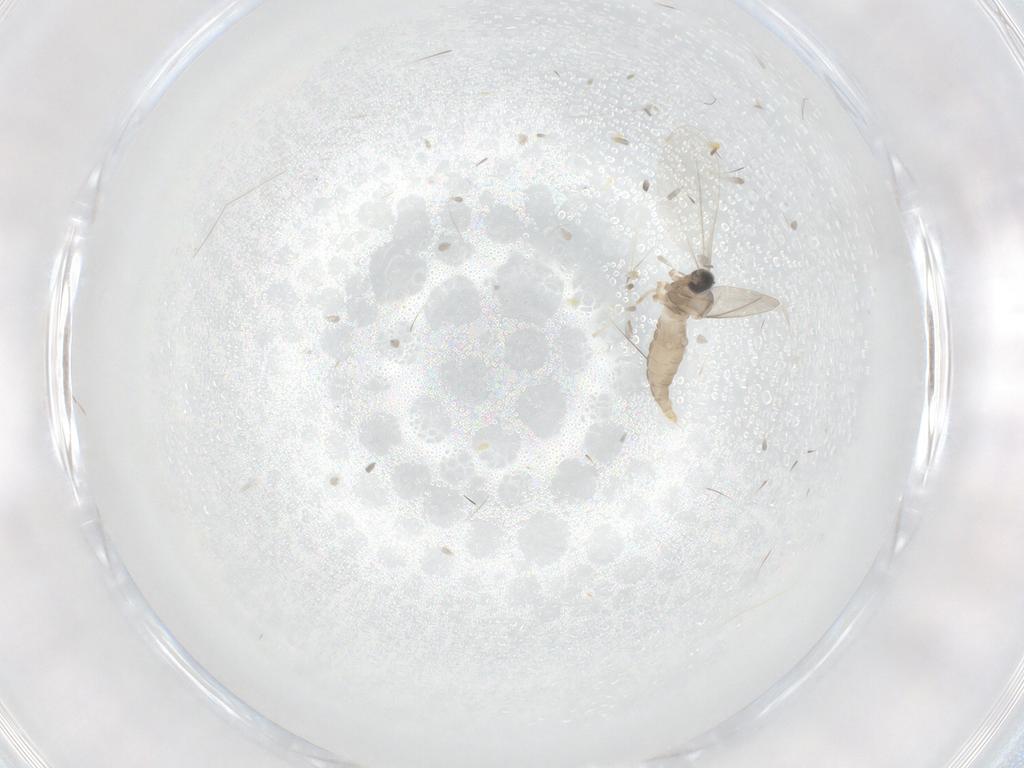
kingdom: Animalia
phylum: Arthropoda
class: Insecta
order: Diptera
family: Cecidomyiidae
